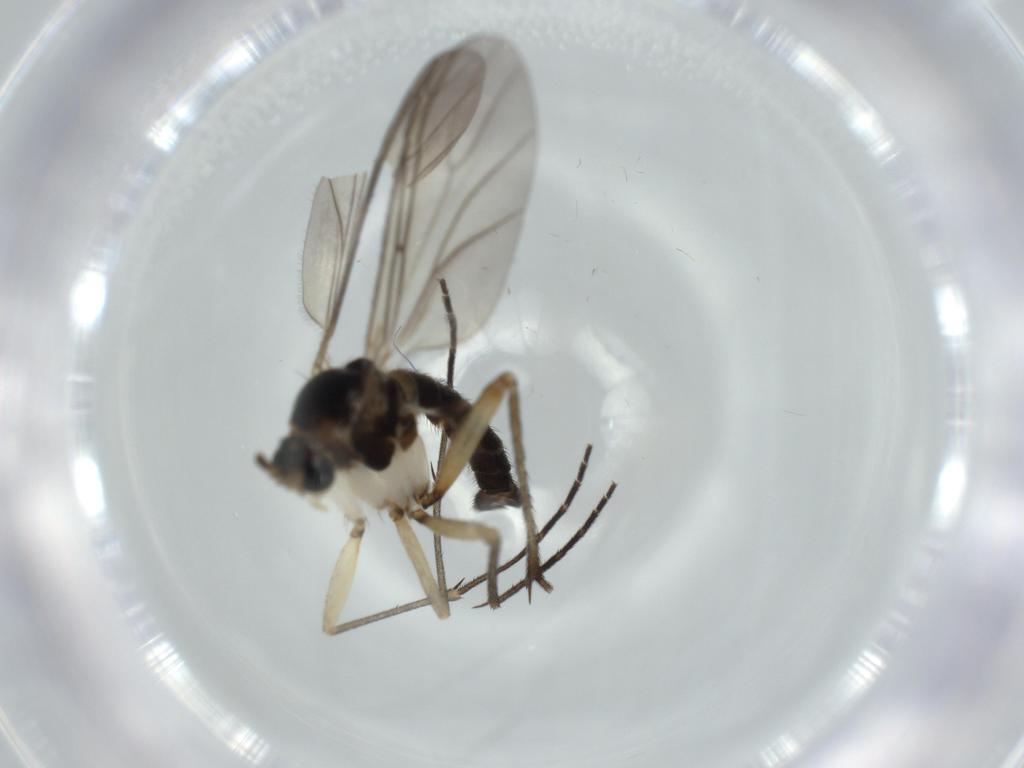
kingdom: Animalia
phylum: Arthropoda
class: Insecta
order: Diptera
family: Sciaridae
